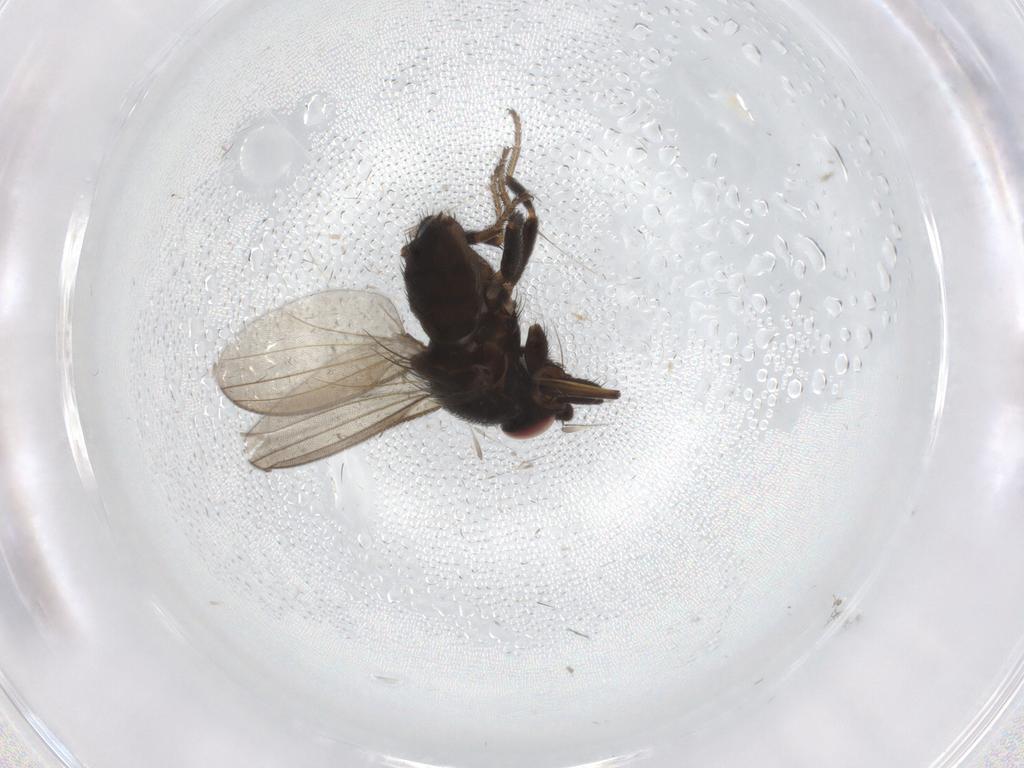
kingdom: Animalia
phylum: Arthropoda
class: Insecta
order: Diptera
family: Milichiidae
